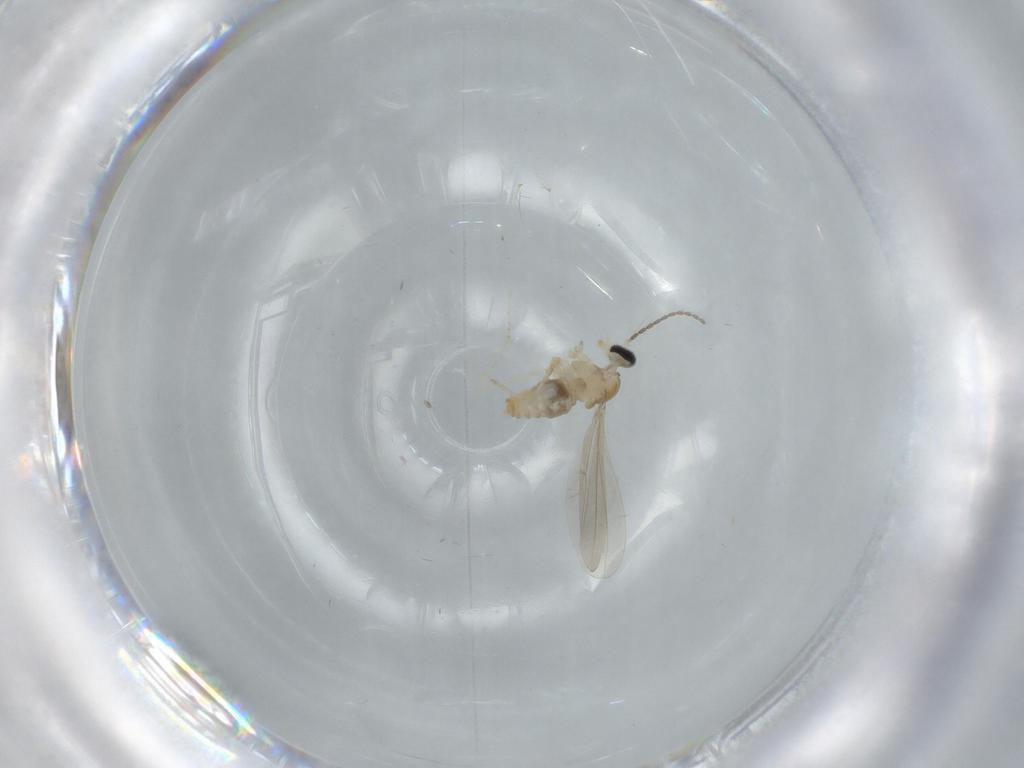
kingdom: Animalia
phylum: Arthropoda
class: Insecta
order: Diptera
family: Cecidomyiidae
